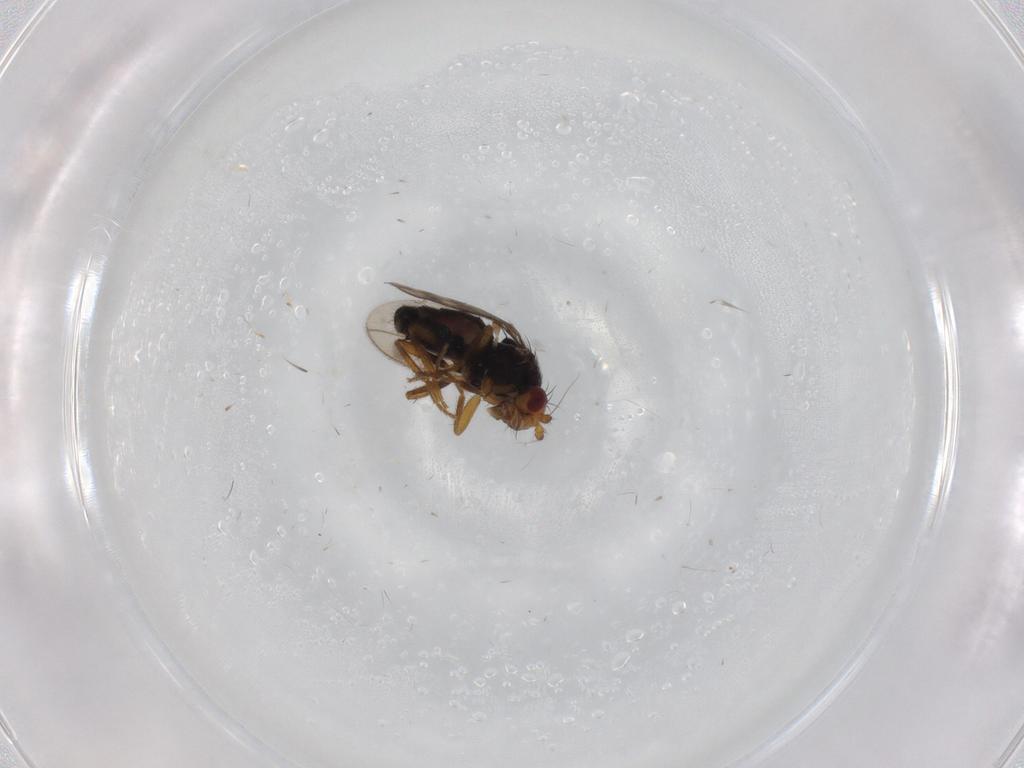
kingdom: Animalia
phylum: Arthropoda
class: Insecta
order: Diptera
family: Sphaeroceridae
